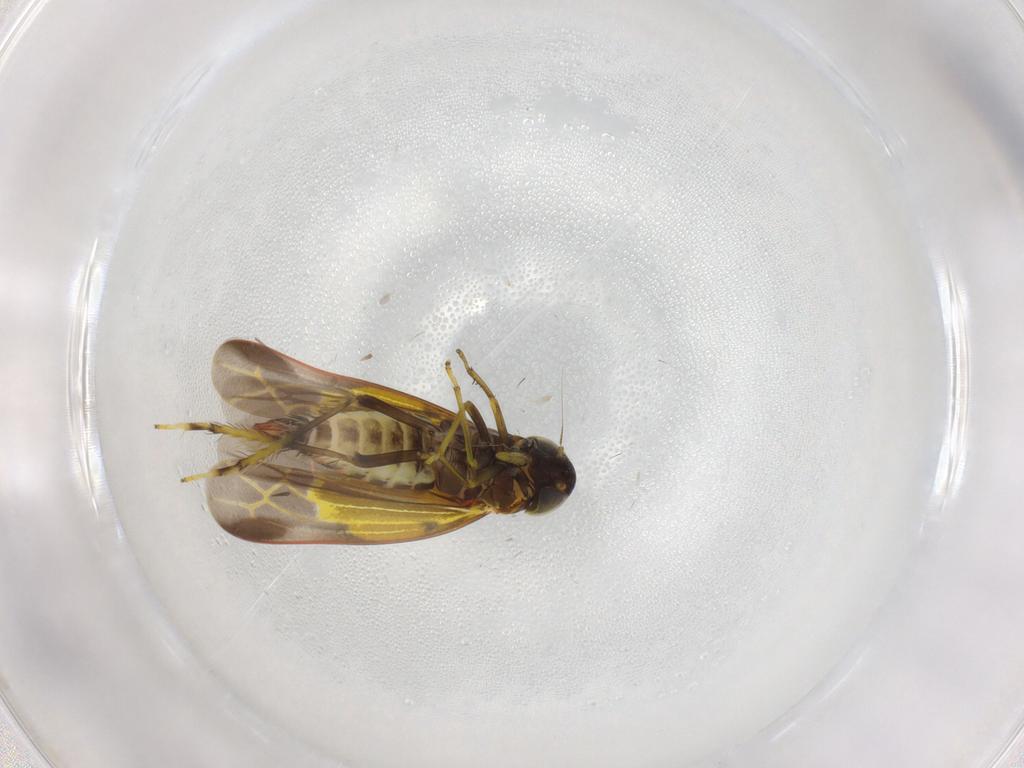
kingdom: Animalia
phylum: Arthropoda
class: Insecta
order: Hemiptera
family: Cicadellidae
